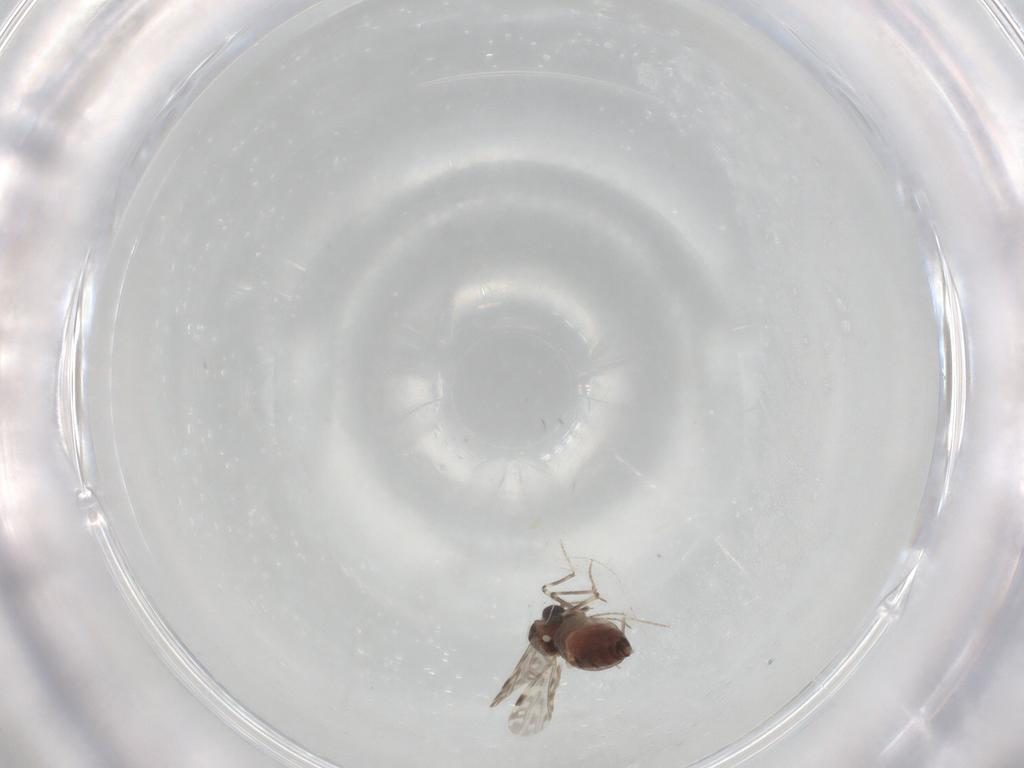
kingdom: Animalia
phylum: Arthropoda
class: Insecta
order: Diptera
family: Ceratopogonidae
